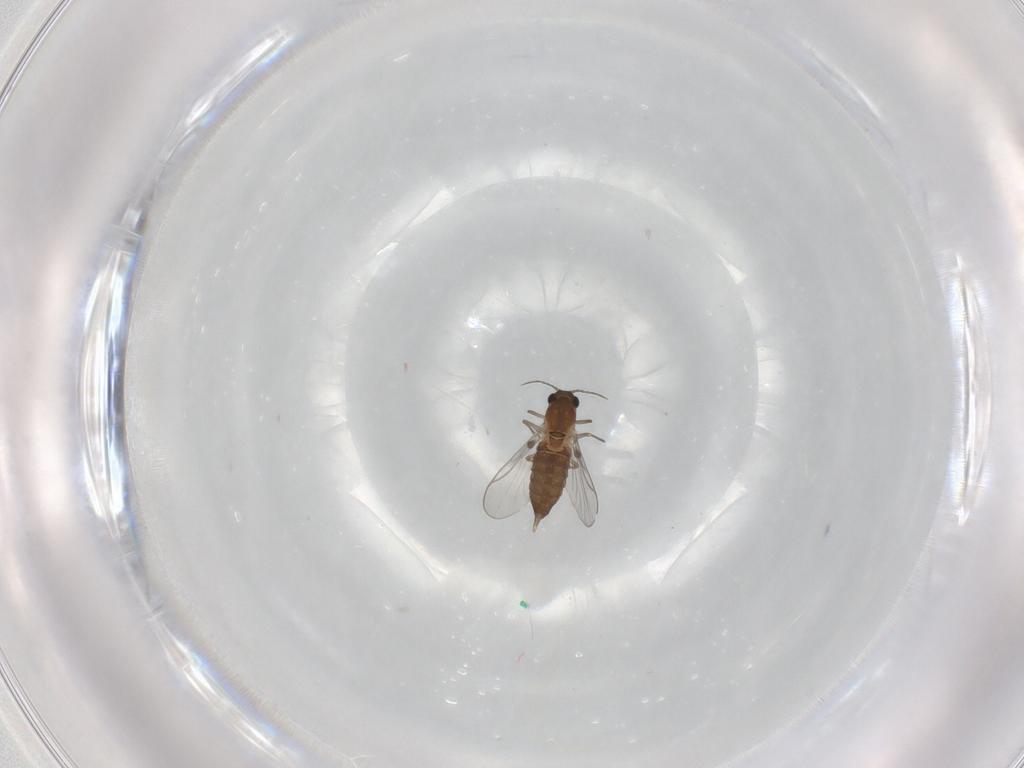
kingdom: Animalia
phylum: Arthropoda
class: Insecta
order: Diptera
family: Chironomidae
